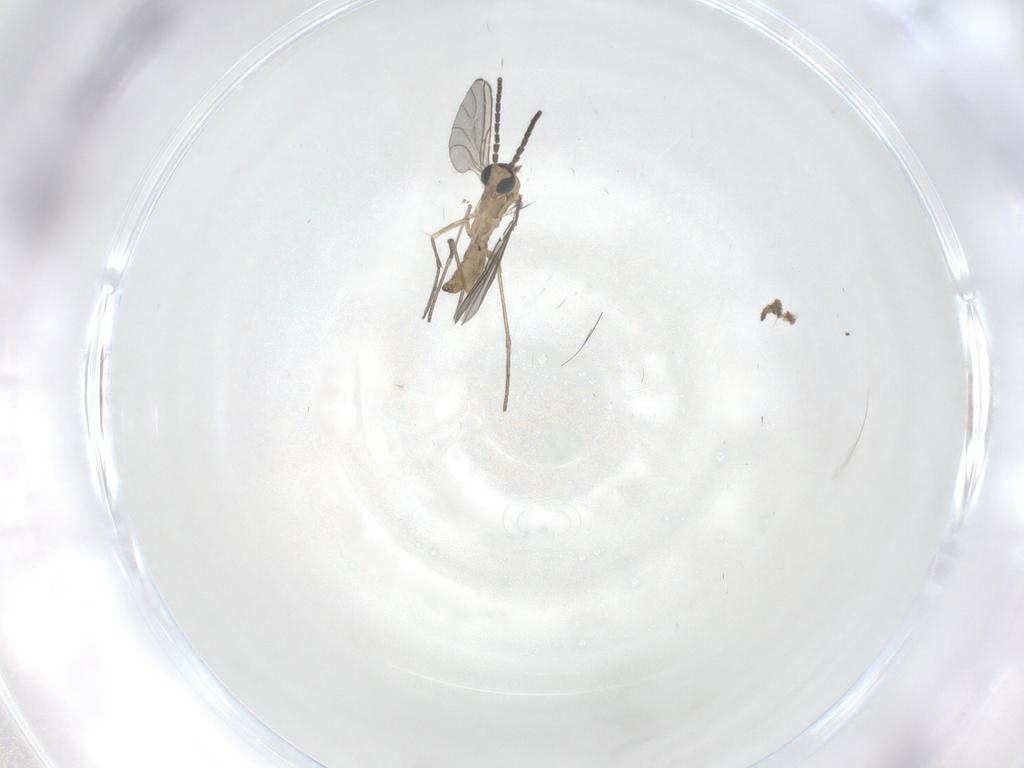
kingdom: Animalia
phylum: Arthropoda
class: Insecta
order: Diptera
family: Sciaridae
